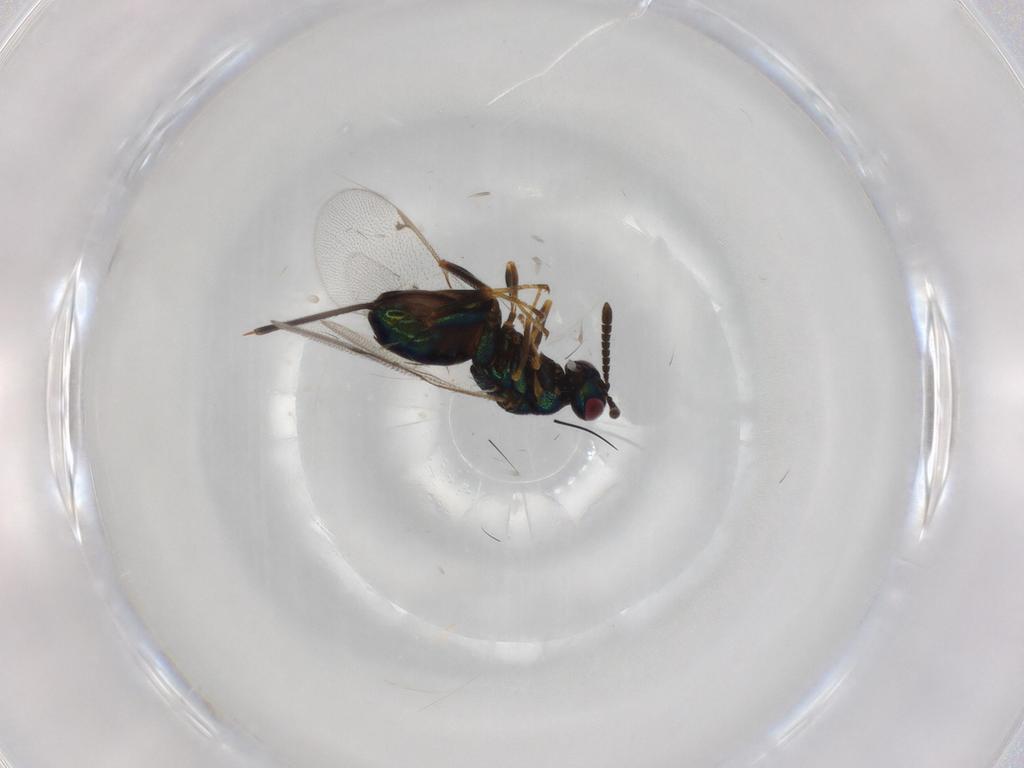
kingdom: Animalia
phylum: Arthropoda
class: Insecta
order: Hymenoptera
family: Torymidae
